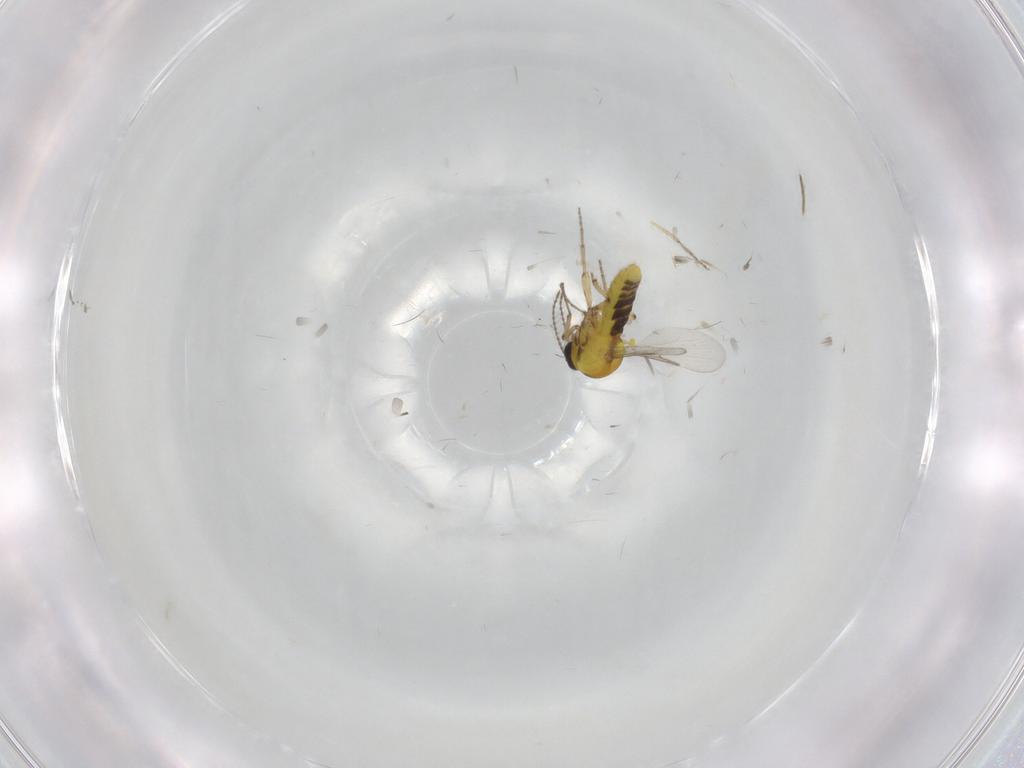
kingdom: Animalia
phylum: Arthropoda
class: Insecta
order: Diptera
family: Ceratopogonidae
